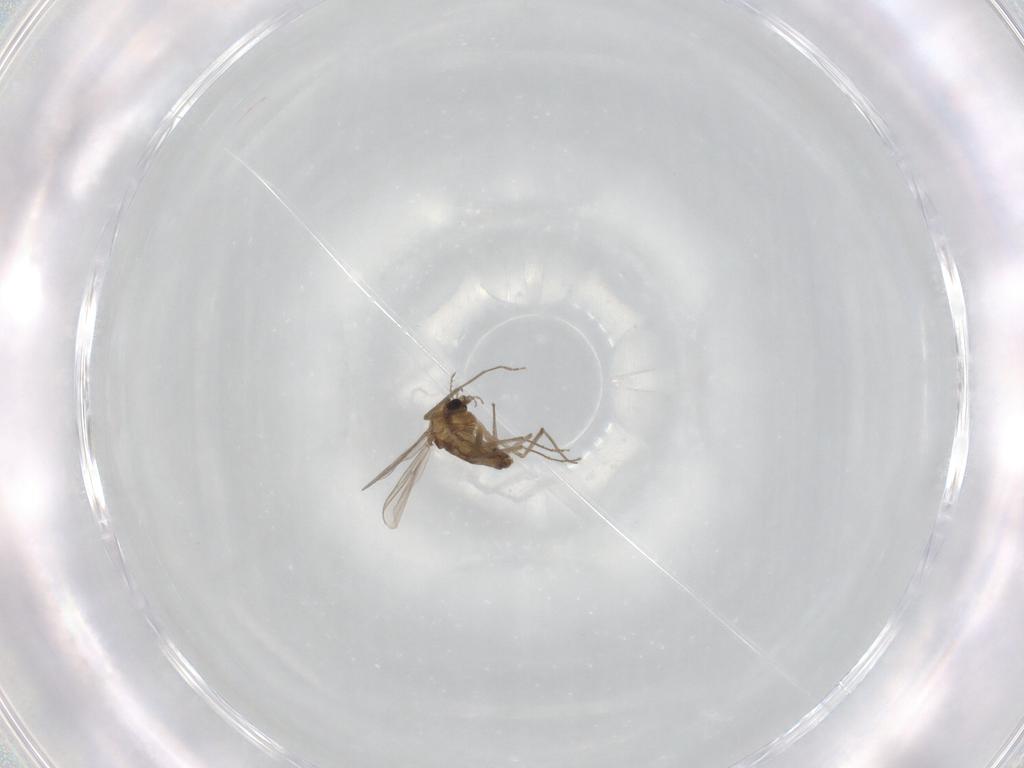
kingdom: Animalia
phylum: Arthropoda
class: Insecta
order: Diptera
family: Chironomidae
